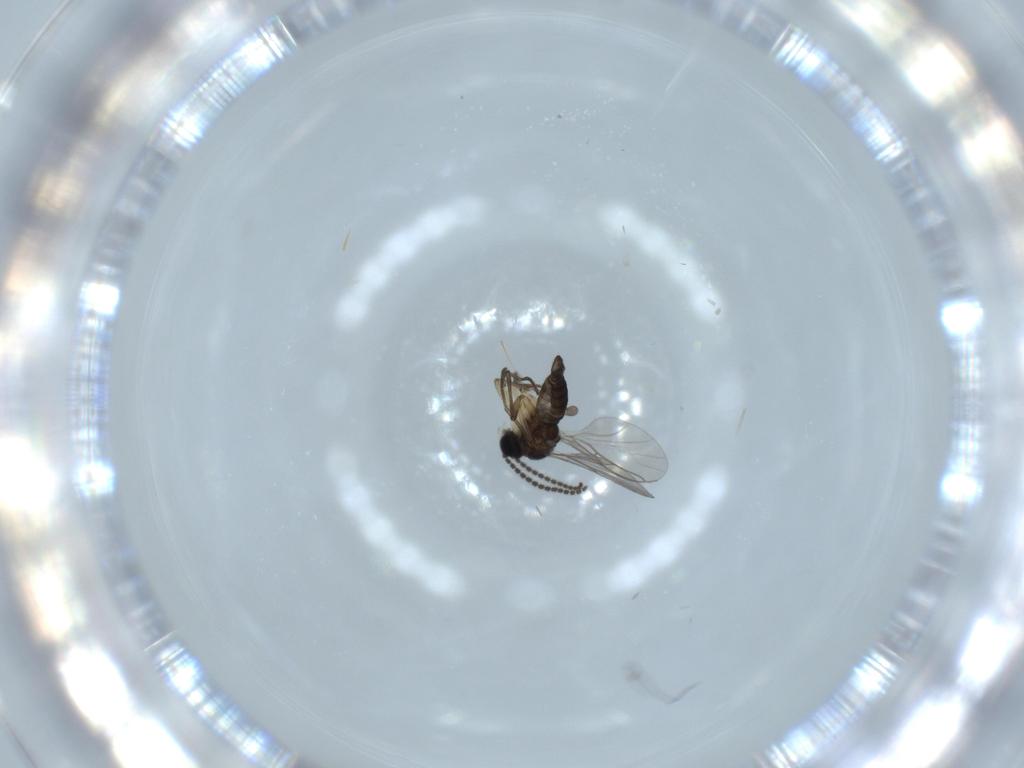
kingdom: Animalia
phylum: Arthropoda
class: Insecta
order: Diptera
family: Sciaridae
